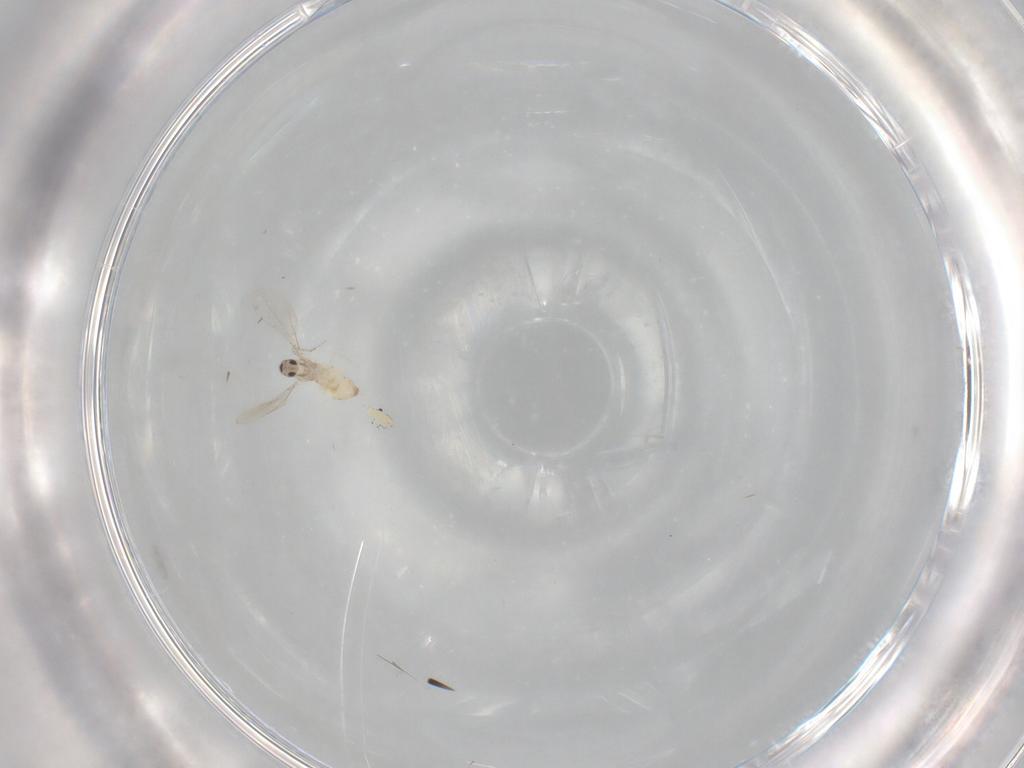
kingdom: Animalia
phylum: Arthropoda
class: Insecta
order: Diptera
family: Cecidomyiidae
